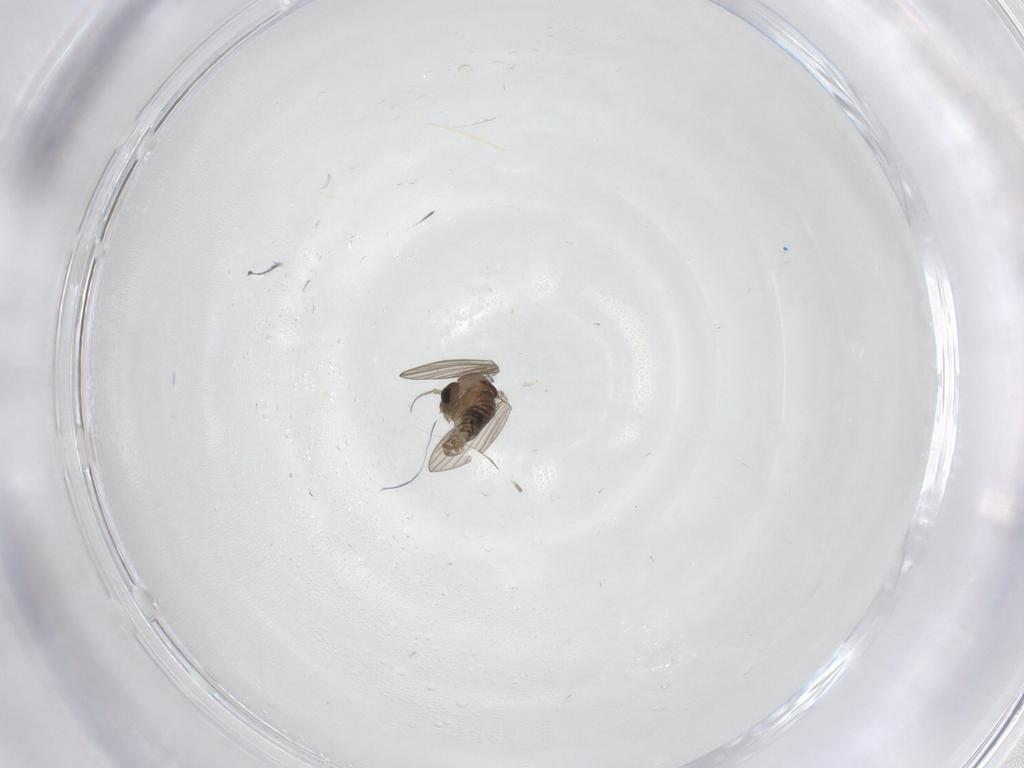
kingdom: Animalia
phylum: Arthropoda
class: Insecta
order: Diptera
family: Psychodidae
